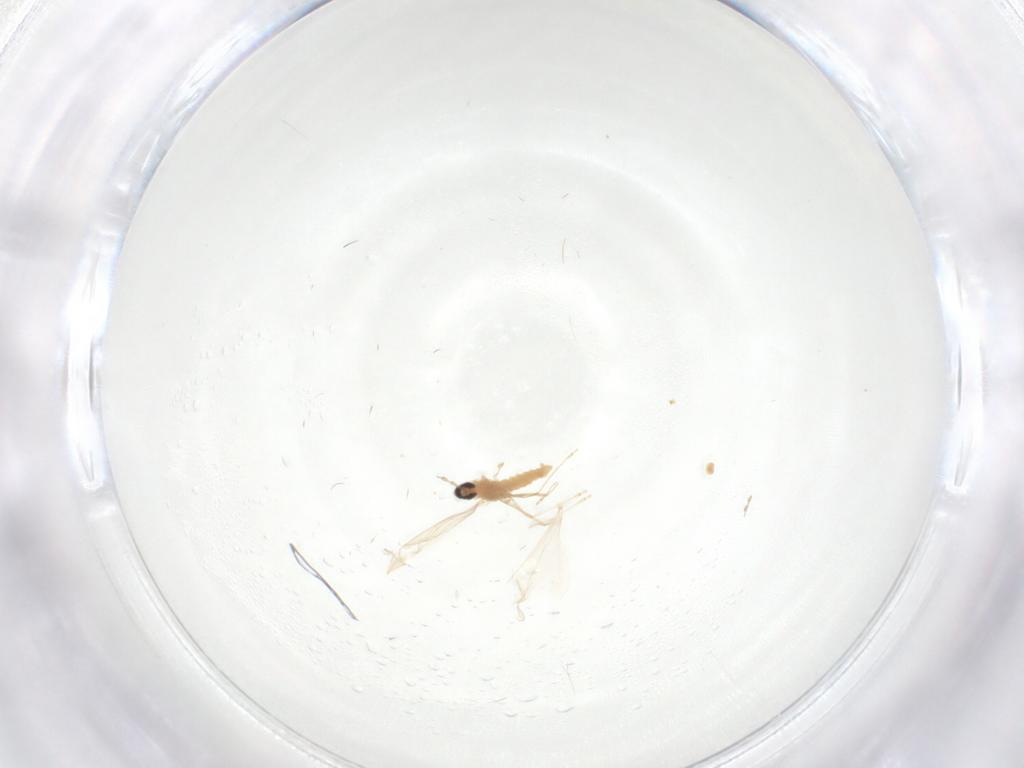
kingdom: Animalia
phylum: Arthropoda
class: Insecta
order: Diptera
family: Cecidomyiidae
